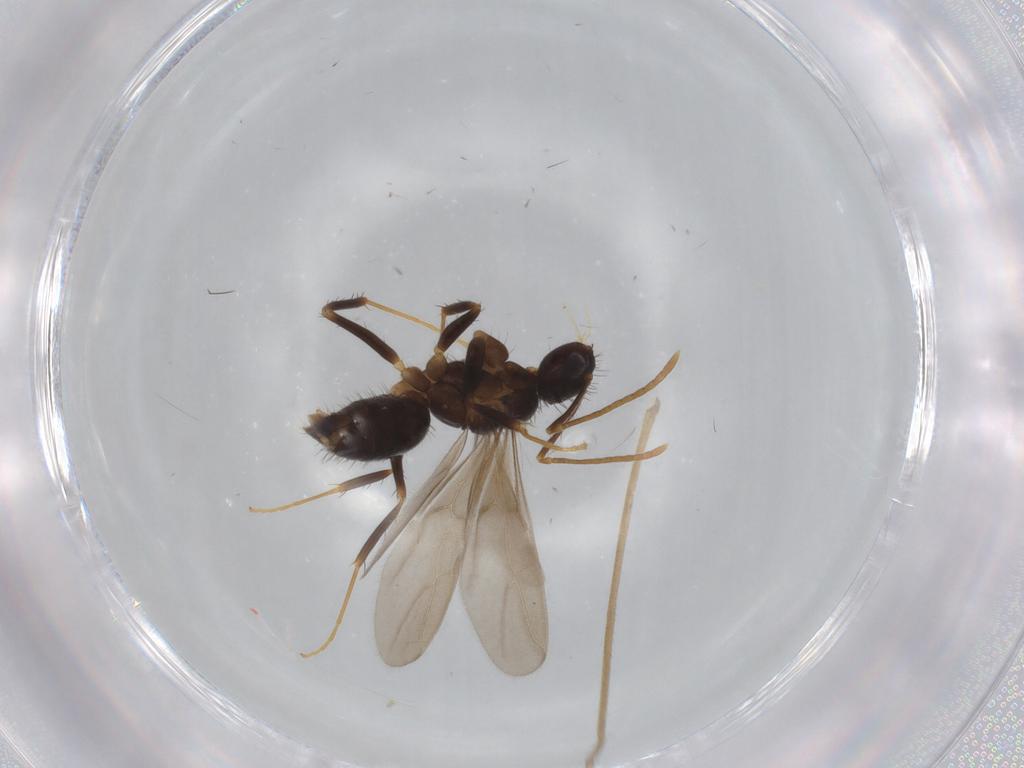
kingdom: Animalia
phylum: Arthropoda
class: Insecta
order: Hymenoptera
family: Formicidae
